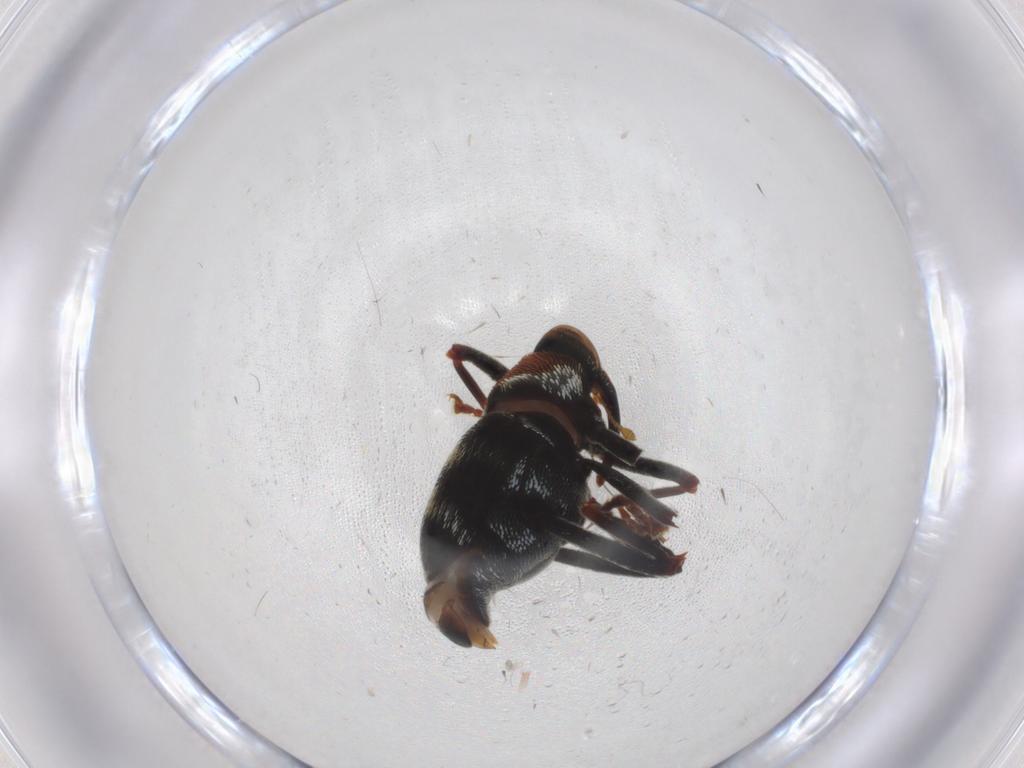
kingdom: Animalia
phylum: Arthropoda
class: Insecta
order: Coleoptera
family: Curculionidae
